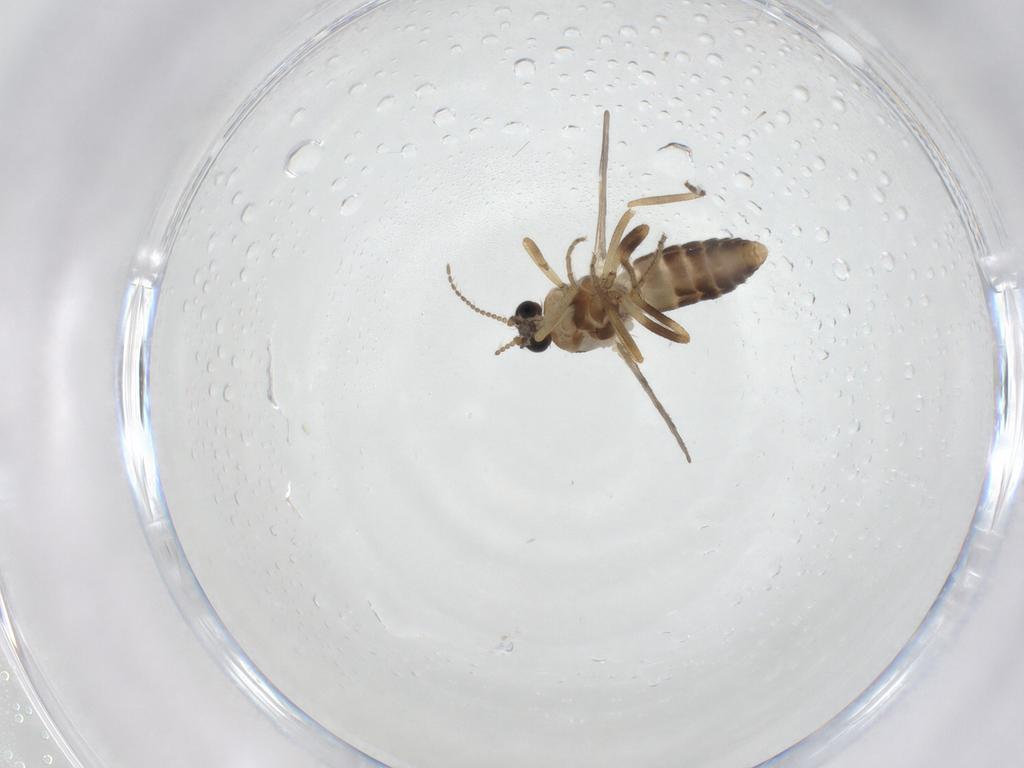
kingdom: Animalia
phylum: Arthropoda
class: Insecta
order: Diptera
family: Ceratopogonidae
